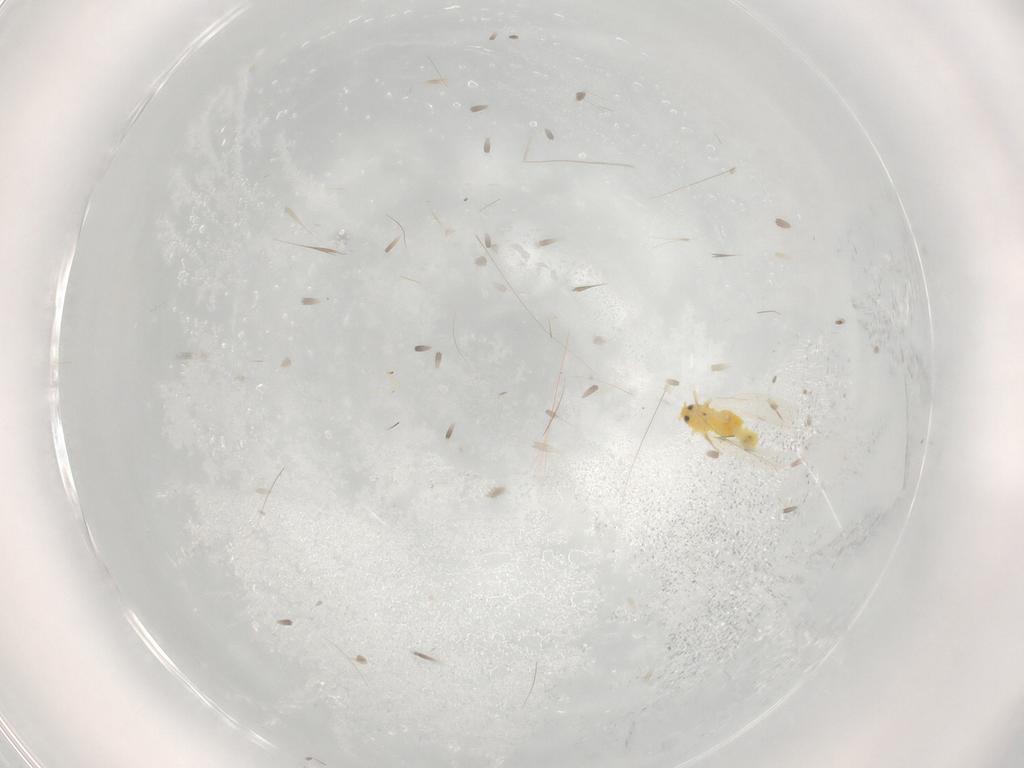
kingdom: Animalia
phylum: Arthropoda
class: Insecta
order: Hemiptera
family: Aleyrodidae
